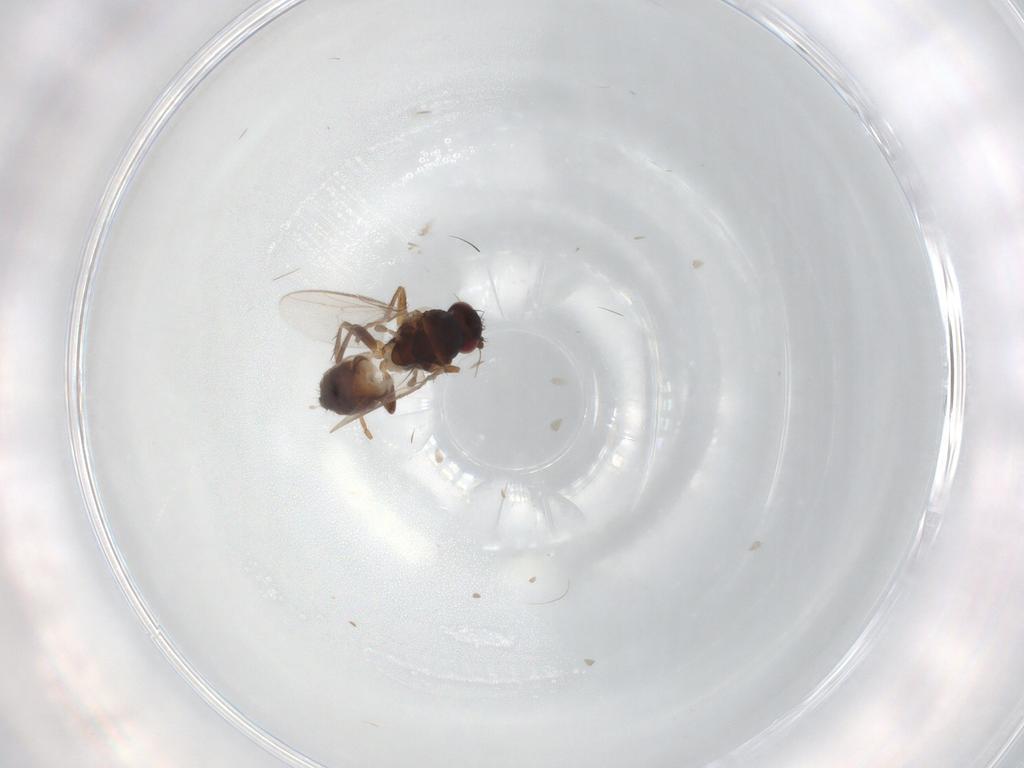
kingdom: Animalia
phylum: Arthropoda
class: Insecta
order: Diptera
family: Sphaeroceridae
